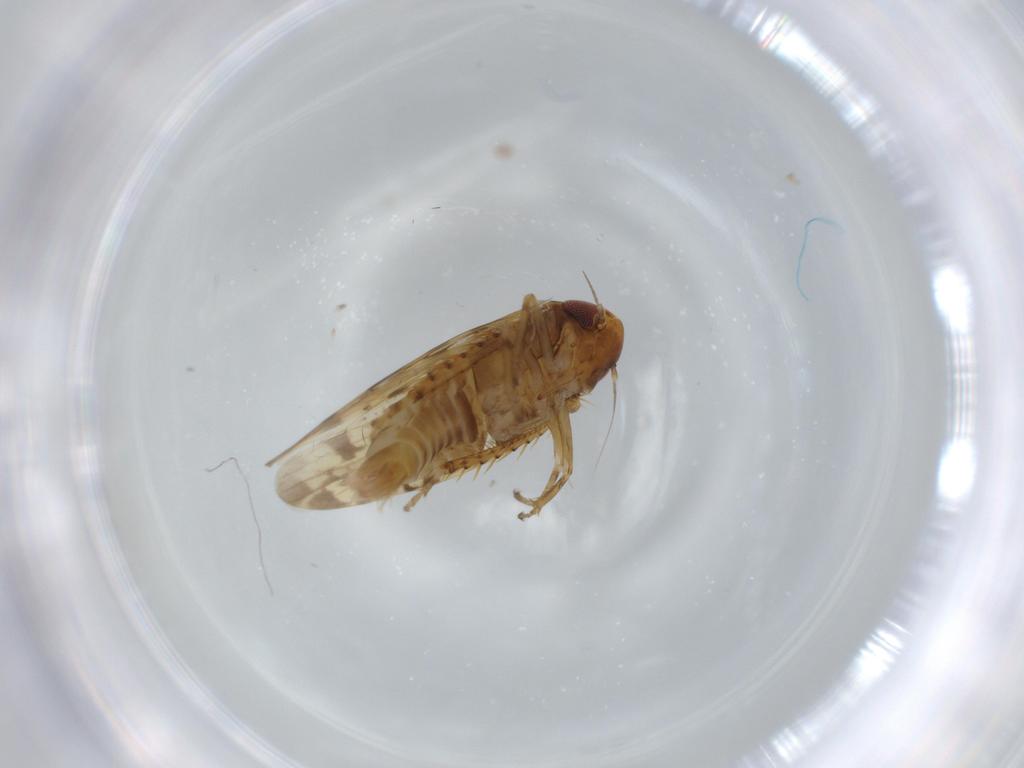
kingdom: Animalia
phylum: Arthropoda
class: Insecta
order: Hemiptera
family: Cicadellidae
